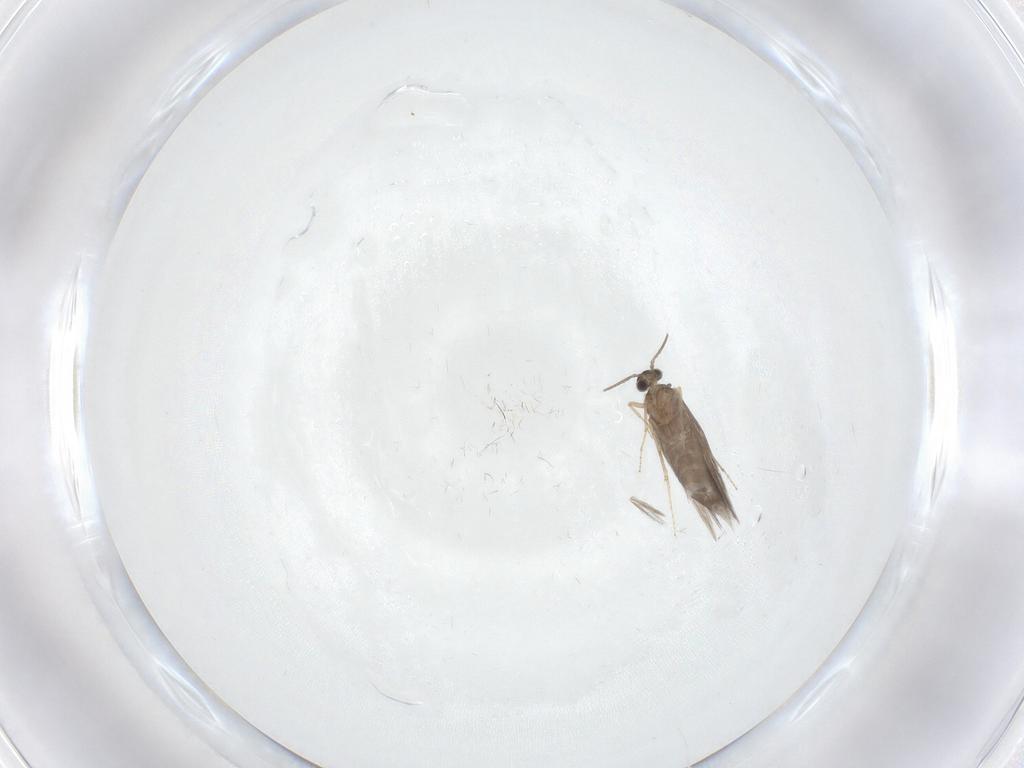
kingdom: Animalia
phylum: Arthropoda
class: Insecta
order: Trichoptera
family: Hydroptilidae
